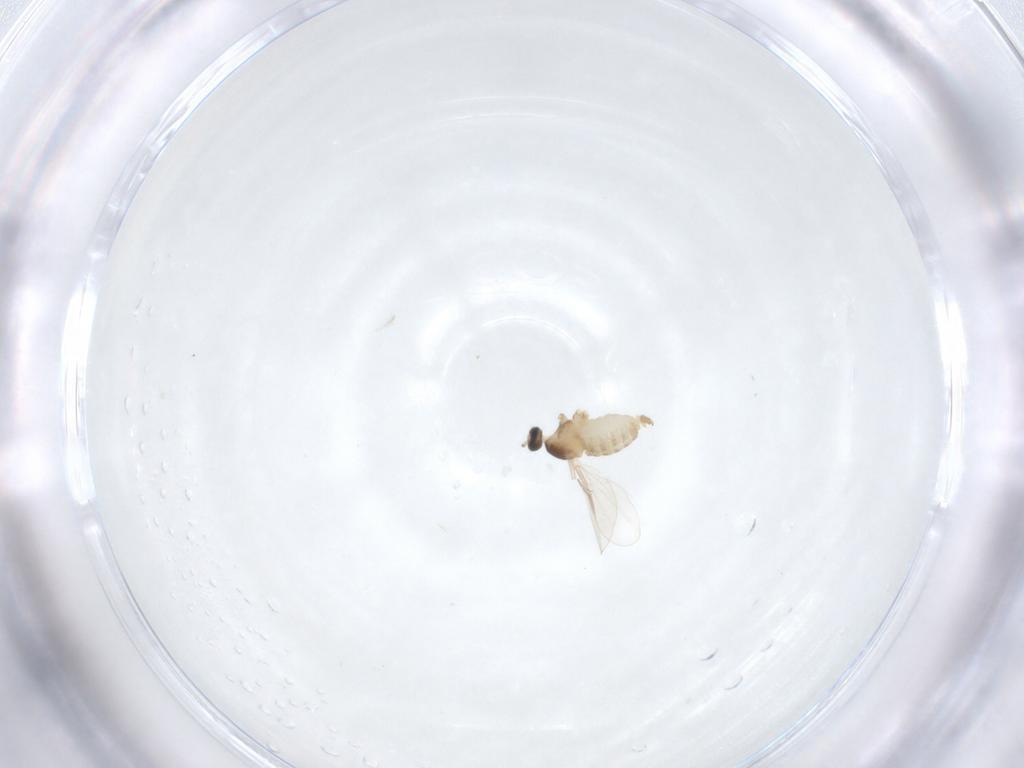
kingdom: Animalia
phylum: Arthropoda
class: Insecta
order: Diptera
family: Cecidomyiidae
